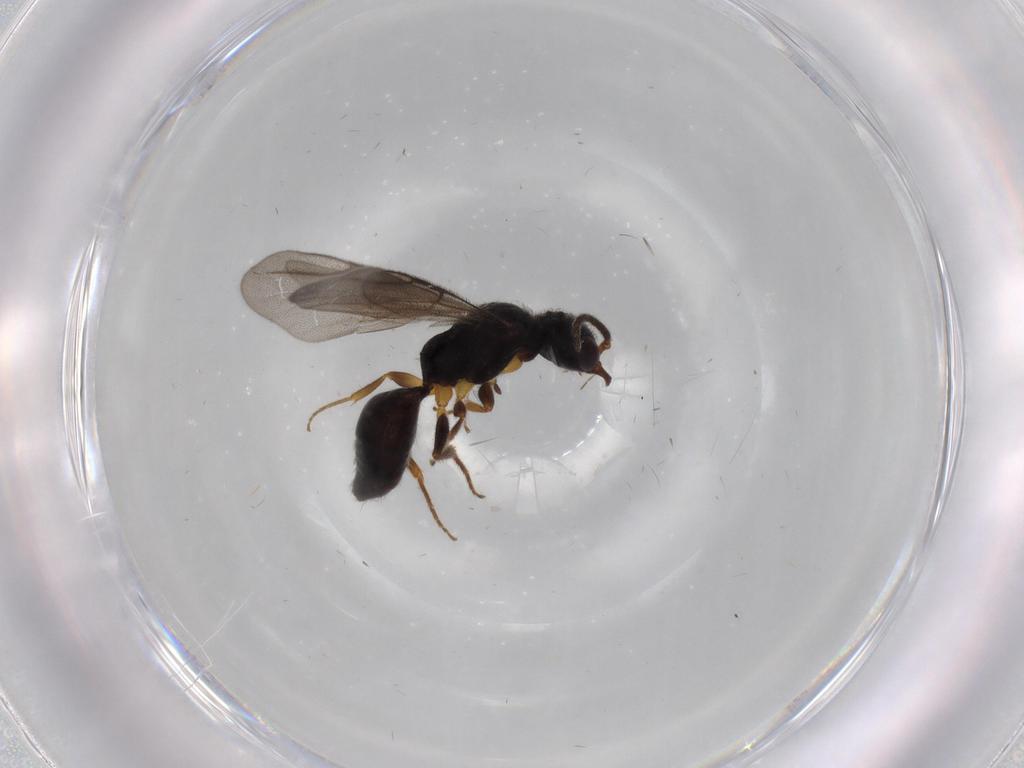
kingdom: Animalia
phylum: Arthropoda
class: Insecta
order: Hymenoptera
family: Bethylidae
